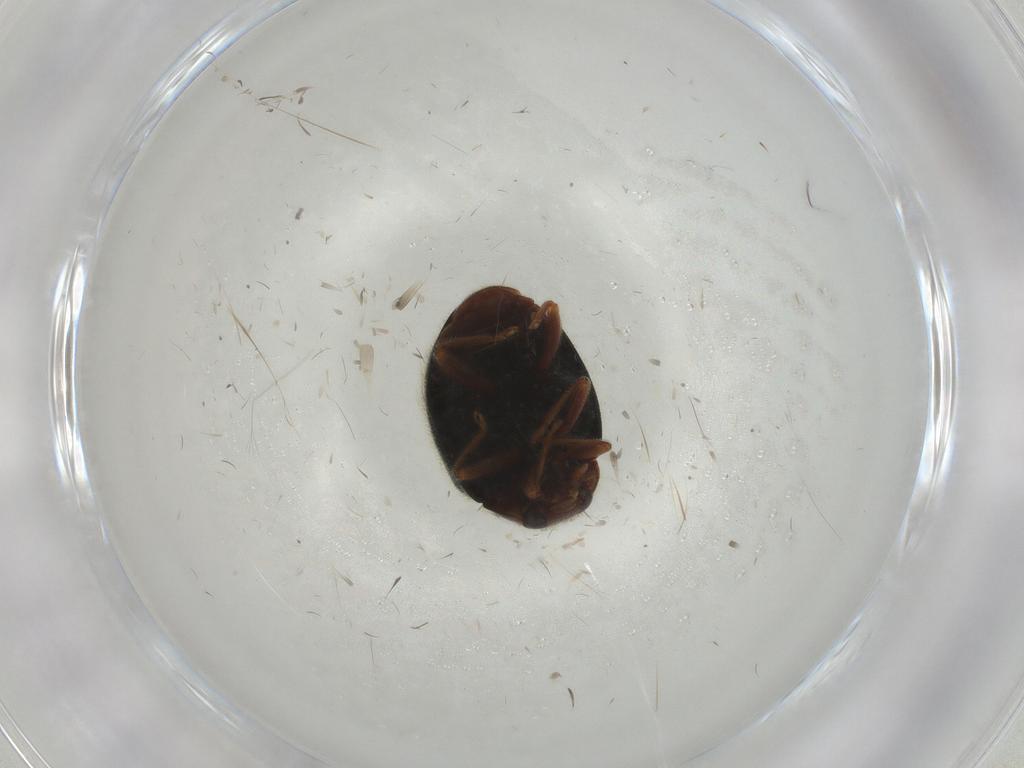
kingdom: Animalia
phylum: Arthropoda
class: Insecta
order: Coleoptera
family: Coccinellidae
